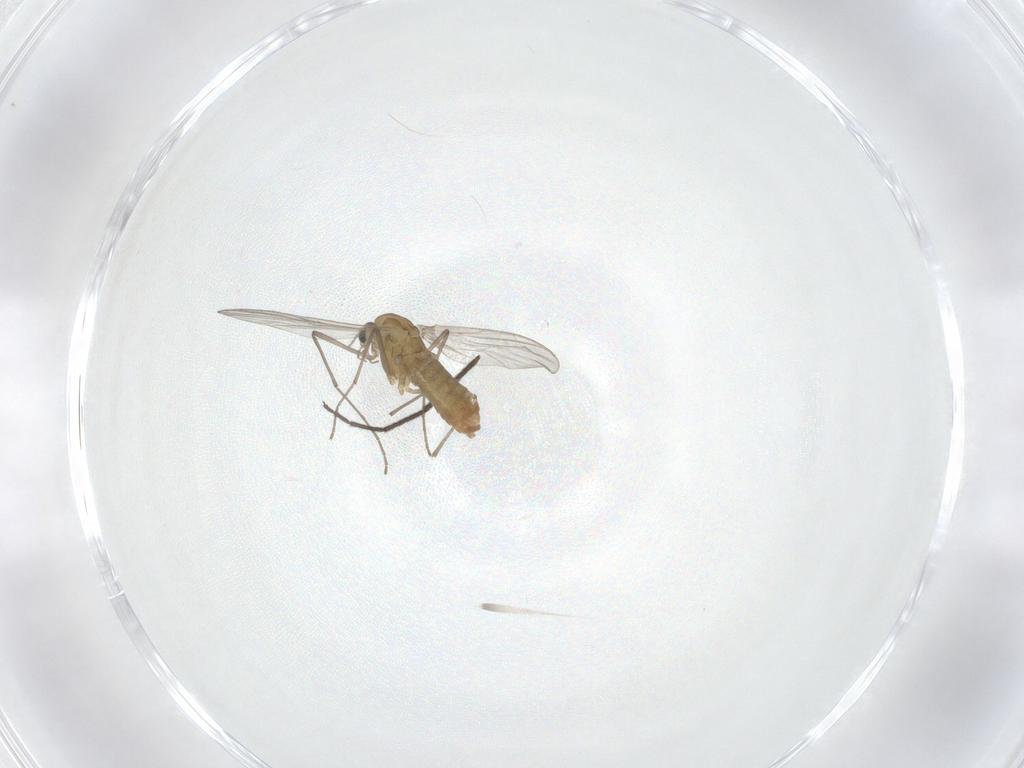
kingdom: Animalia
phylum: Arthropoda
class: Insecta
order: Diptera
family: Chironomidae
